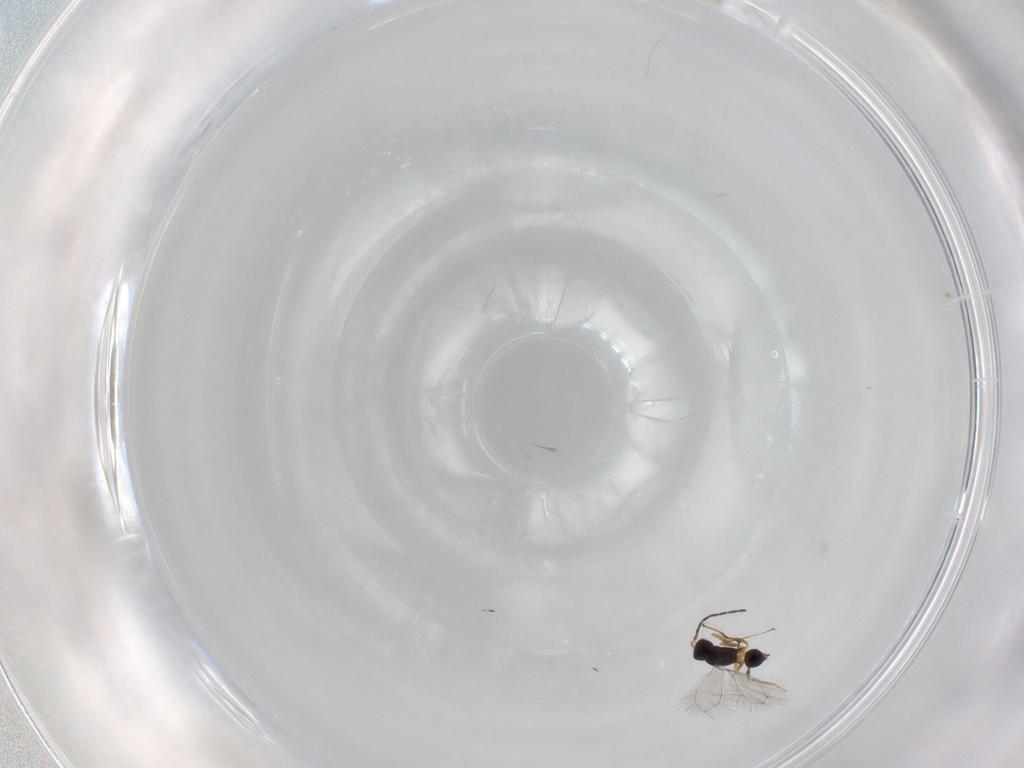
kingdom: Animalia
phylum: Arthropoda
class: Insecta
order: Hymenoptera
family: Mymaridae
